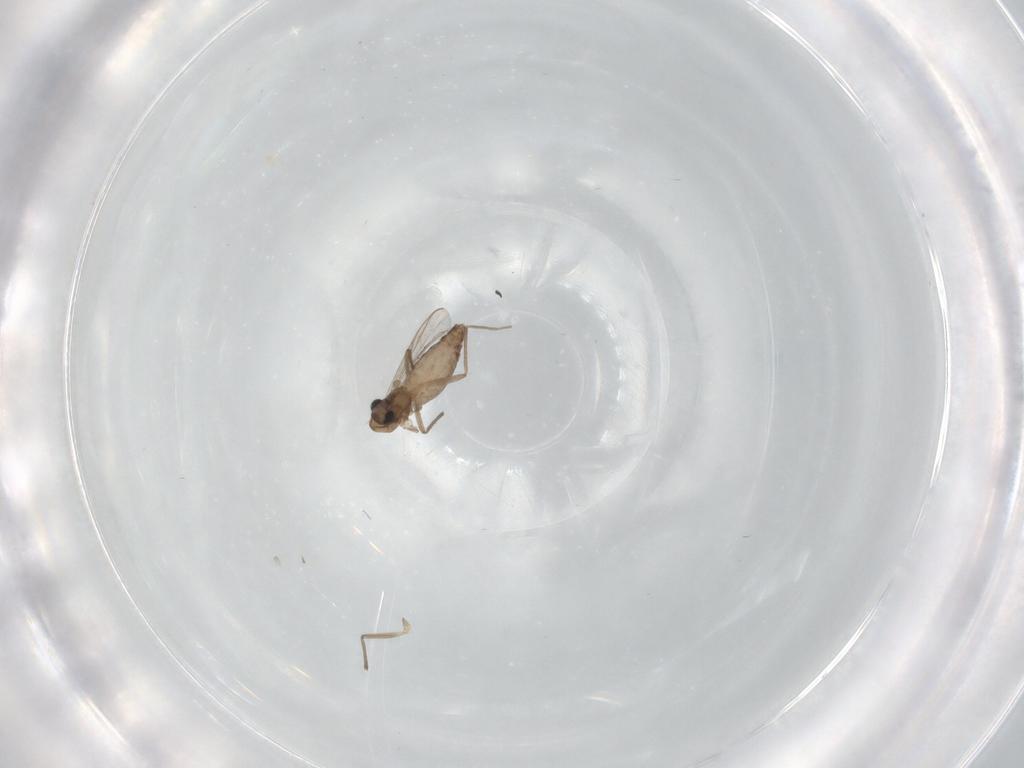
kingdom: Animalia
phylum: Arthropoda
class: Insecta
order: Diptera
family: Chironomidae
